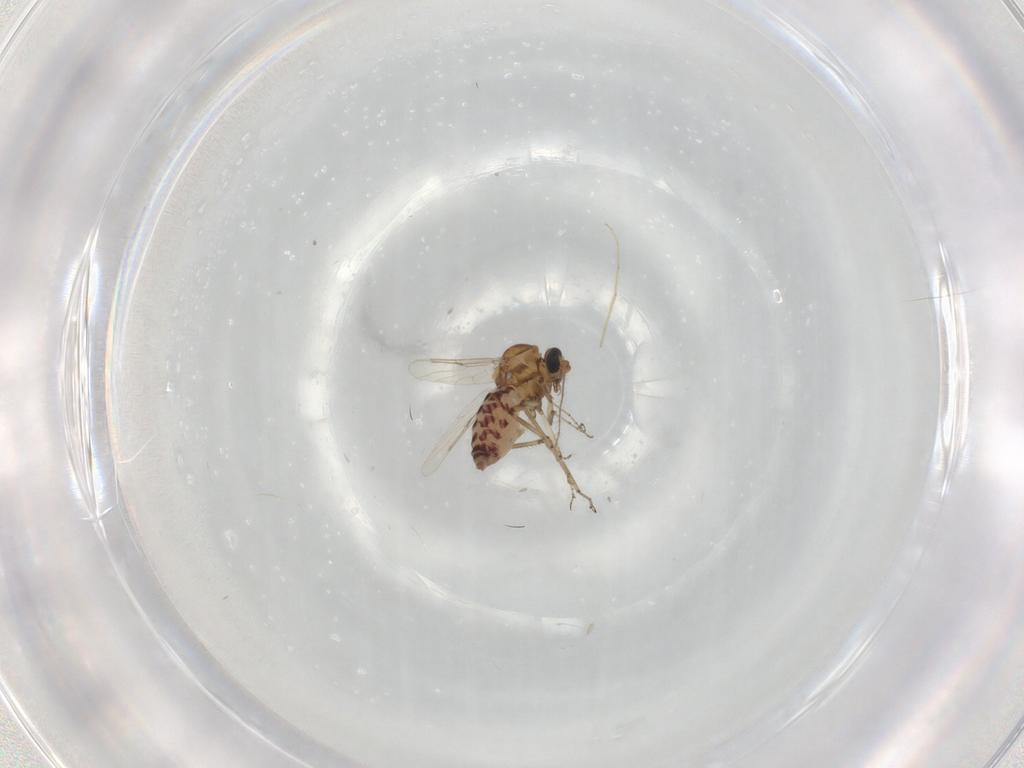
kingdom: Animalia
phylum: Arthropoda
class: Insecta
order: Diptera
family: Ceratopogonidae
